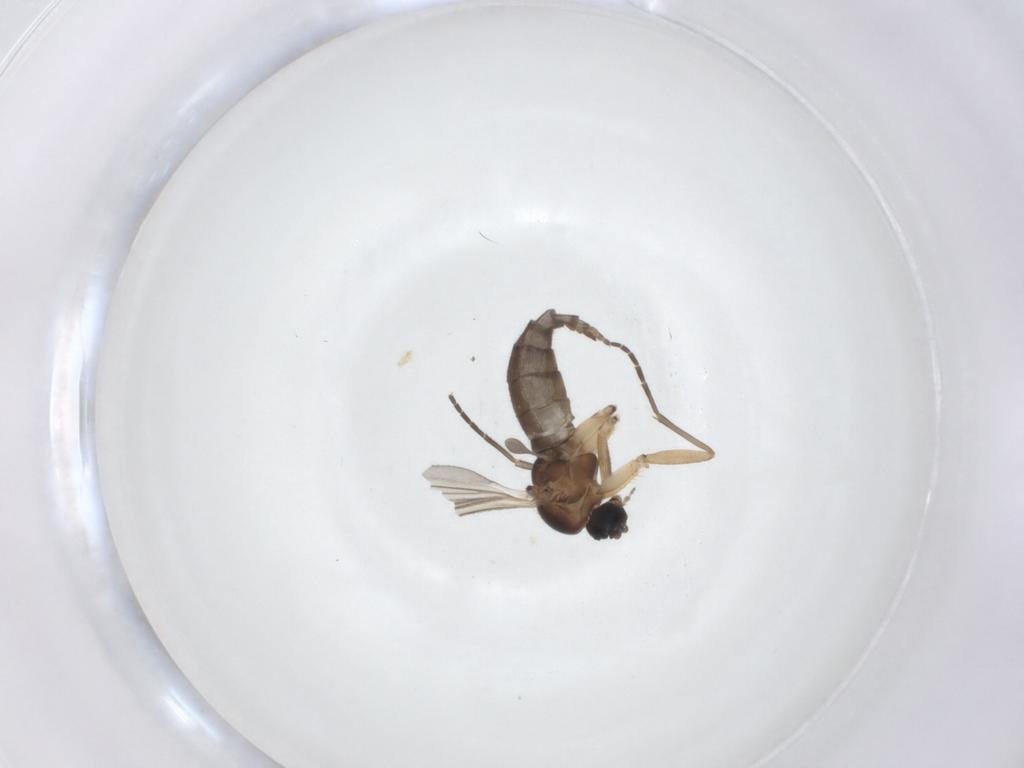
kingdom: Animalia
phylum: Arthropoda
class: Insecta
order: Diptera
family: Sciaridae
